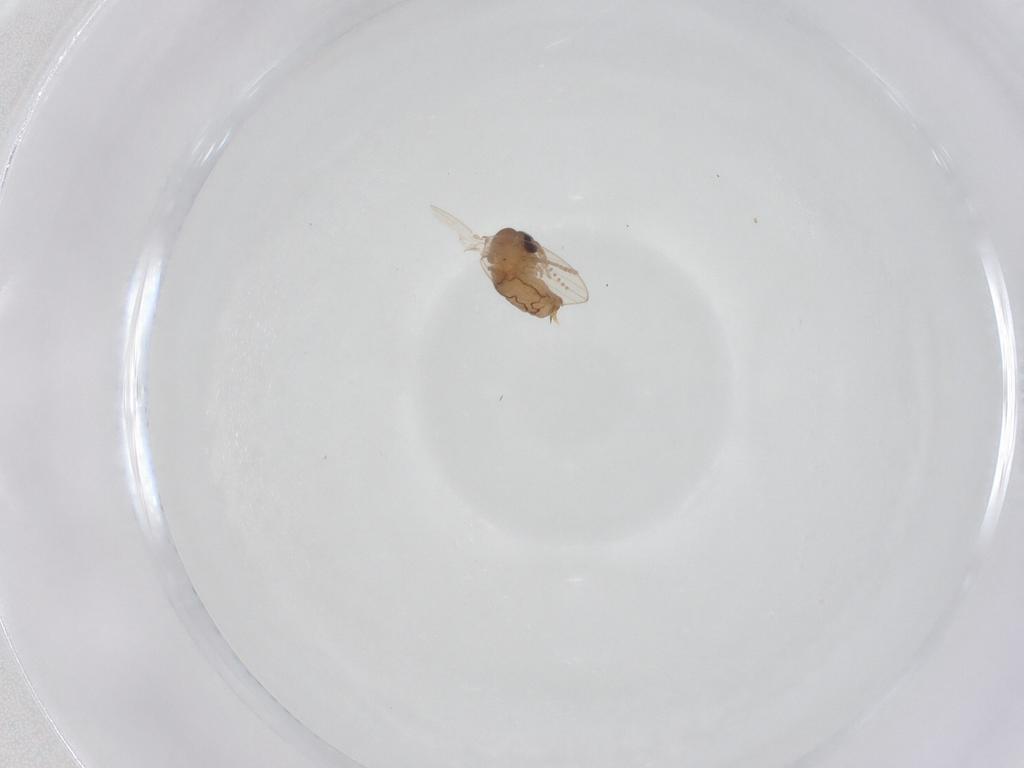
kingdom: Animalia
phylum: Arthropoda
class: Insecta
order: Diptera
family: Psychodidae
